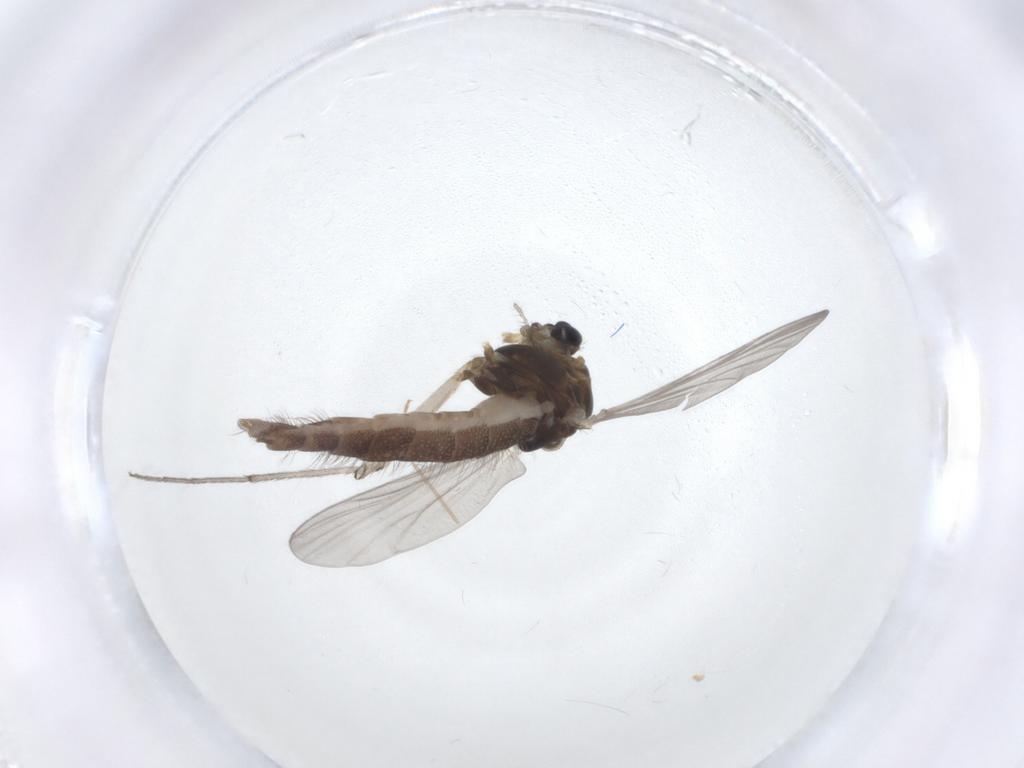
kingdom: Animalia
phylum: Arthropoda
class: Insecta
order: Diptera
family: Chironomidae
